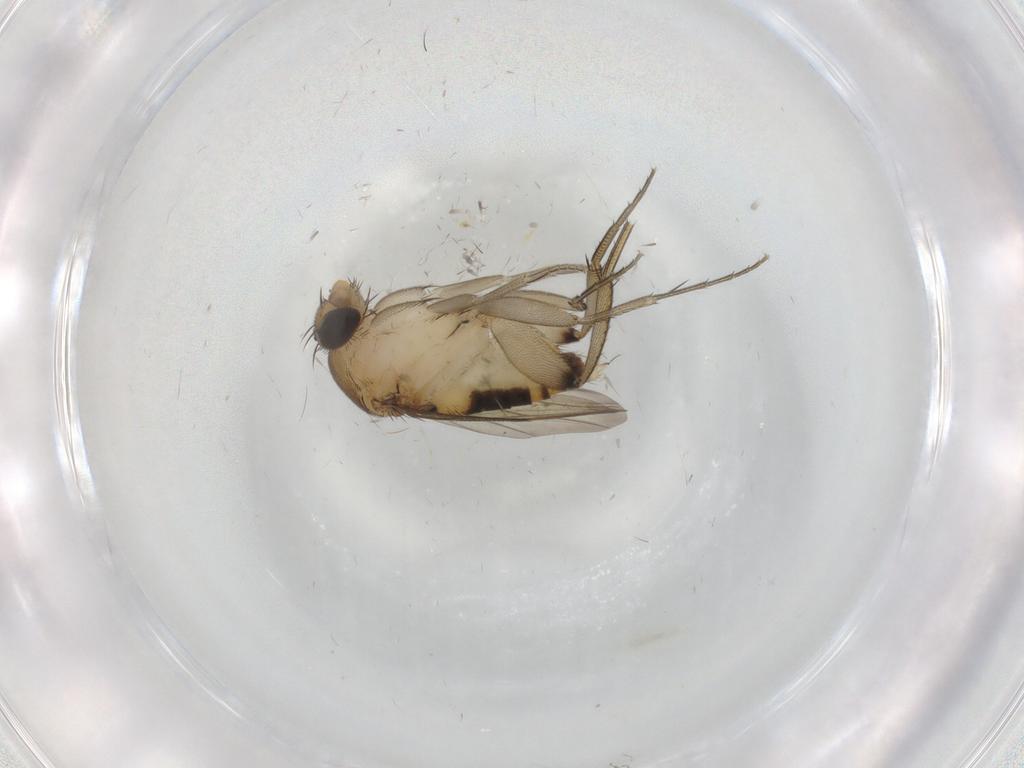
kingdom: Animalia
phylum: Arthropoda
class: Insecta
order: Diptera
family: Phoridae
